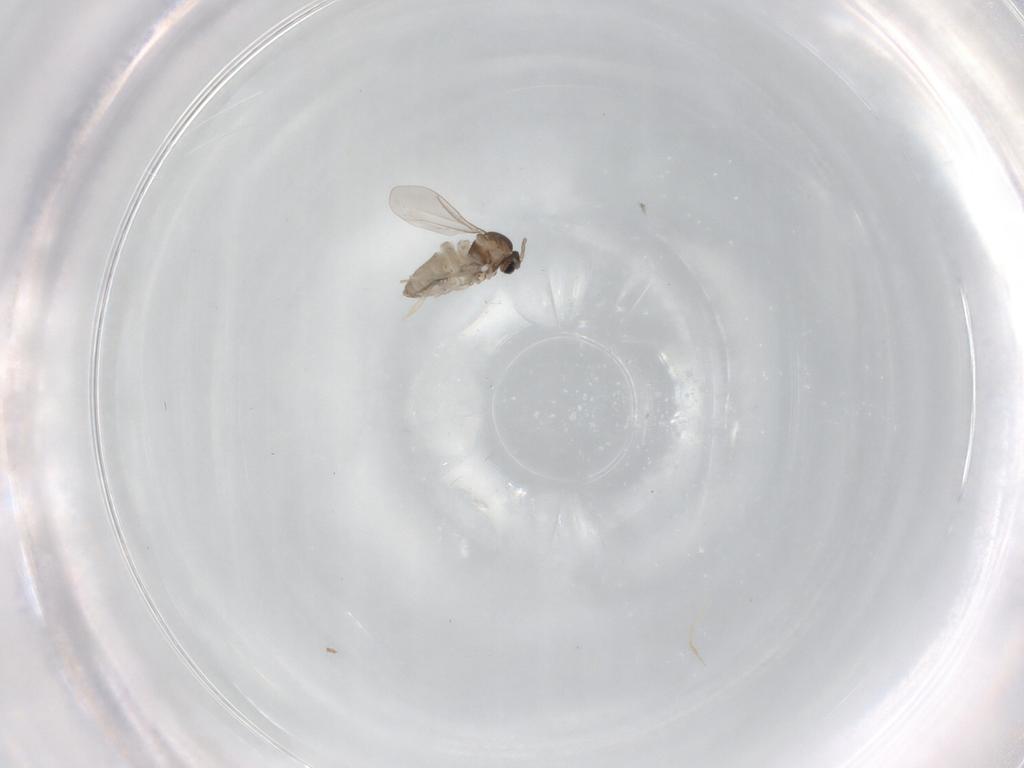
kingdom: Animalia
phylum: Arthropoda
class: Insecta
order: Diptera
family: Cecidomyiidae
